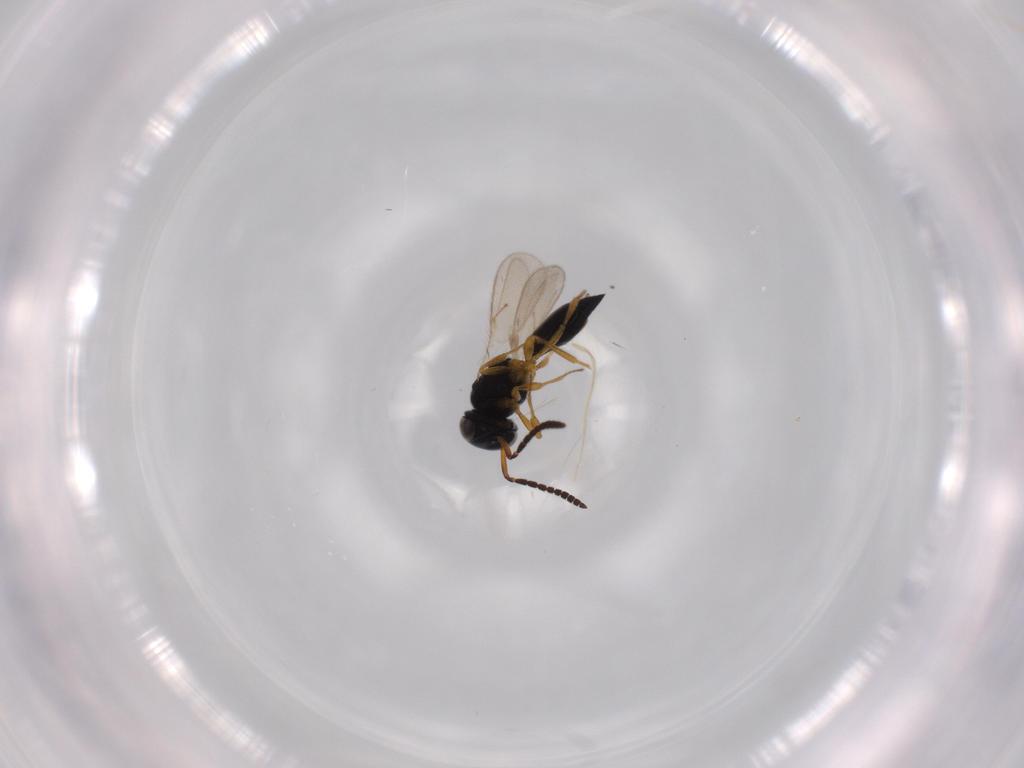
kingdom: Animalia
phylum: Arthropoda
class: Insecta
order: Hymenoptera
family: Scelionidae
